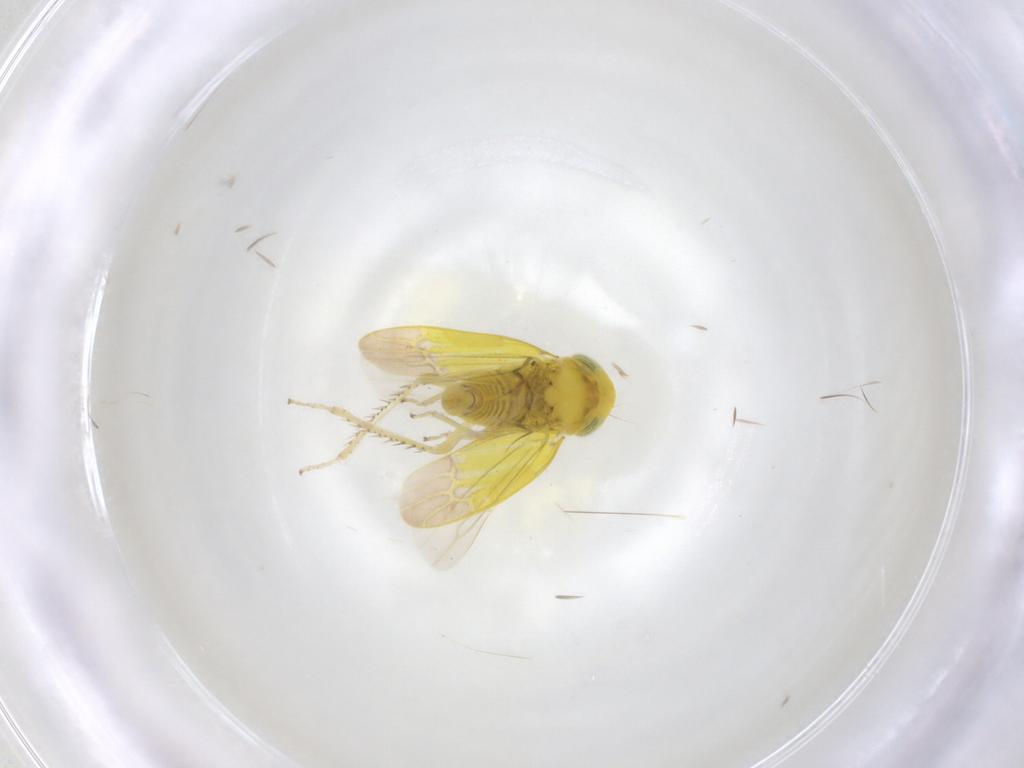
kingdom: Animalia
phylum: Arthropoda
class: Insecta
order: Hemiptera
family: Cicadellidae
